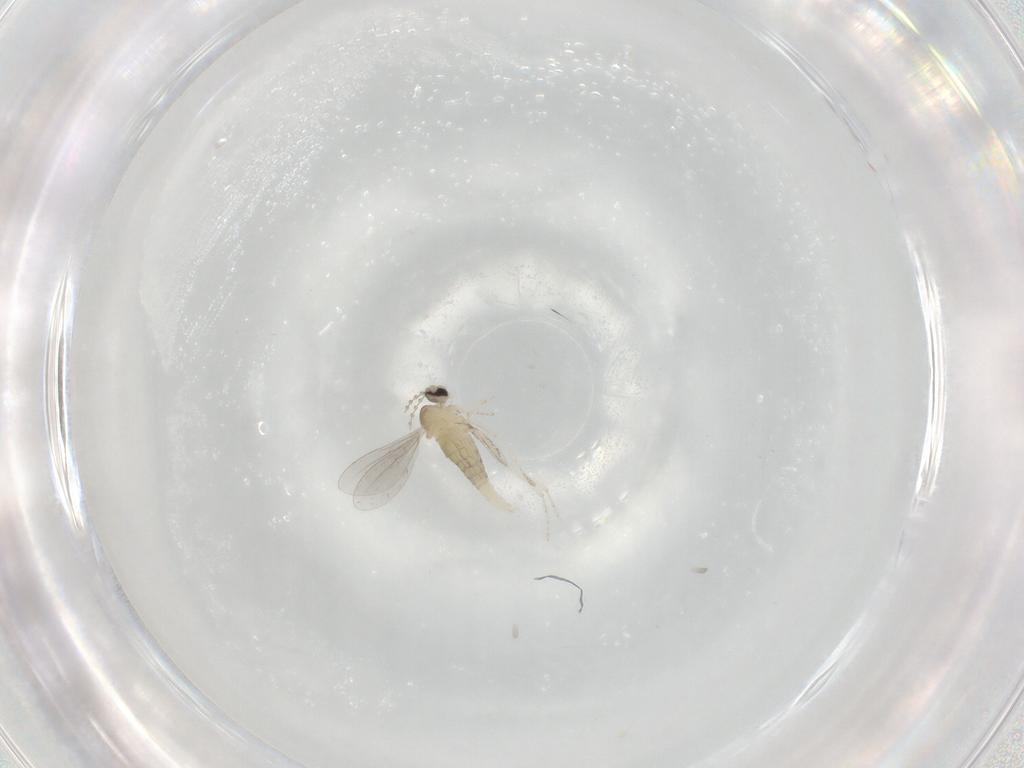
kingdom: Animalia
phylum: Arthropoda
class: Insecta
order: Diptera
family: Cecidomyiidae
